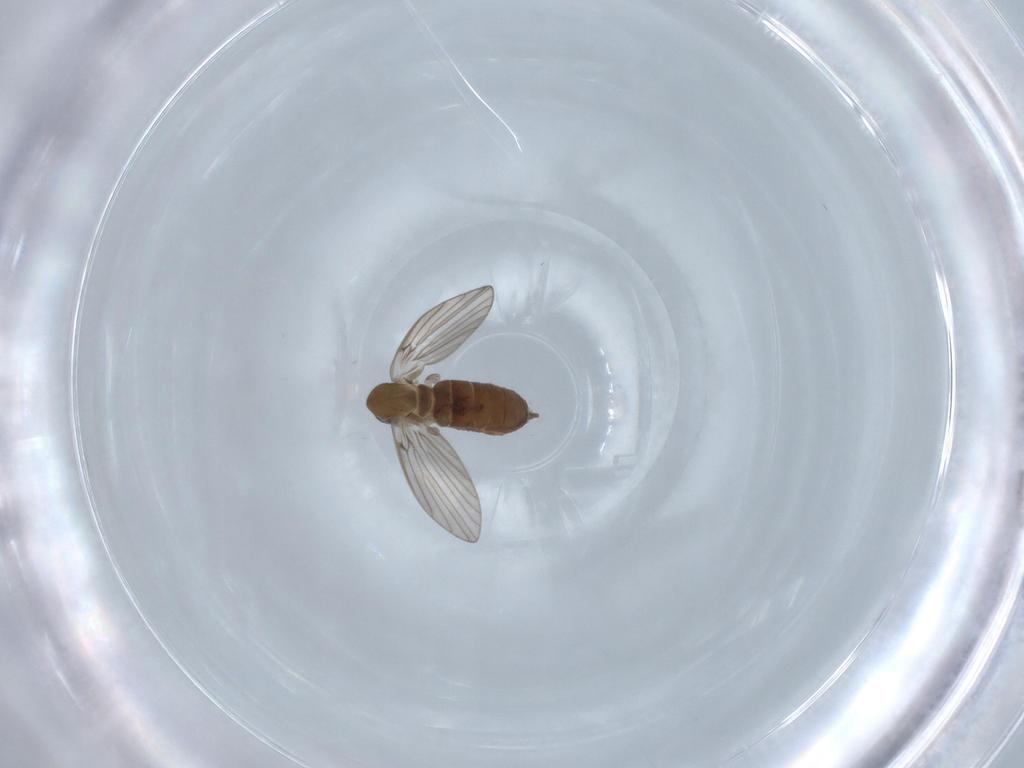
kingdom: Animalia
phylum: Arthropoda
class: Insecta
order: Diptera
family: Psychodidae
